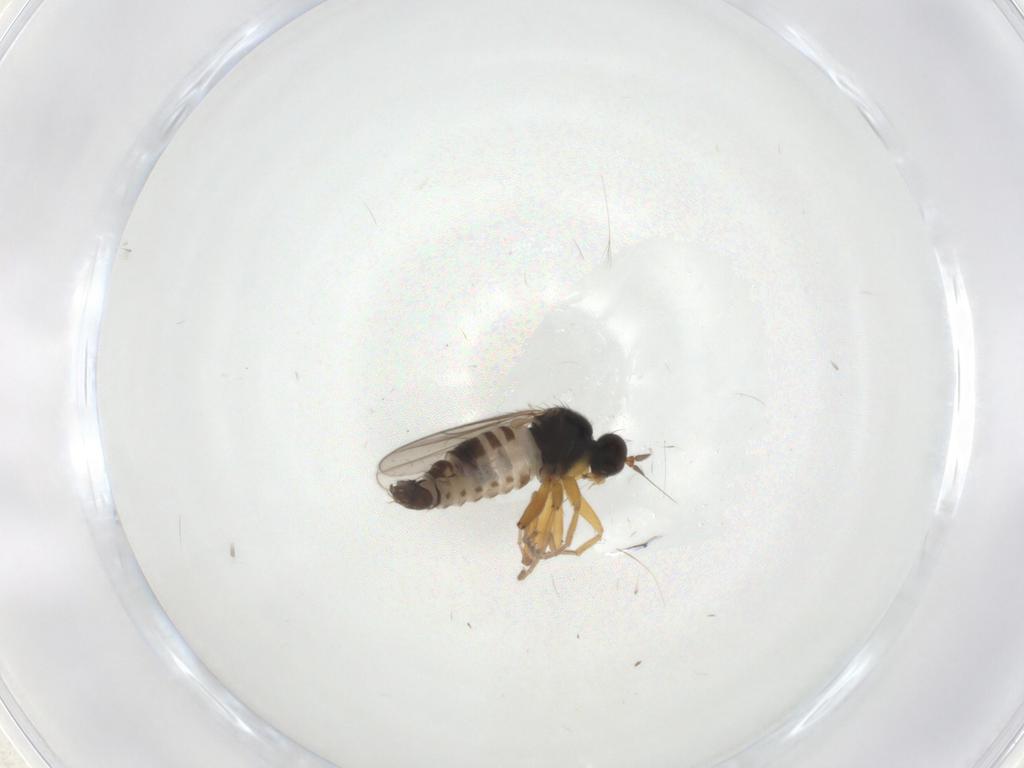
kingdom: Animalia
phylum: Arthropoda
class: Insecta
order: Diptera
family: Hybotidae
